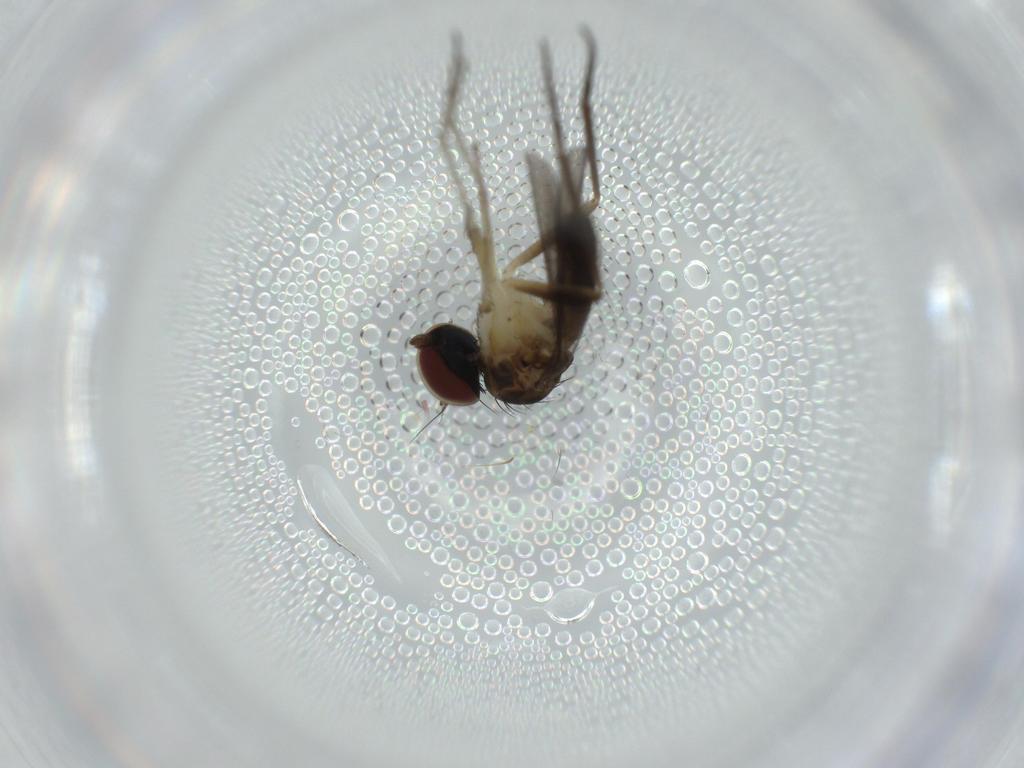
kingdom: Animalia
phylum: Arthropoda
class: Insecta
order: Diptera
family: Dolichopodidae
